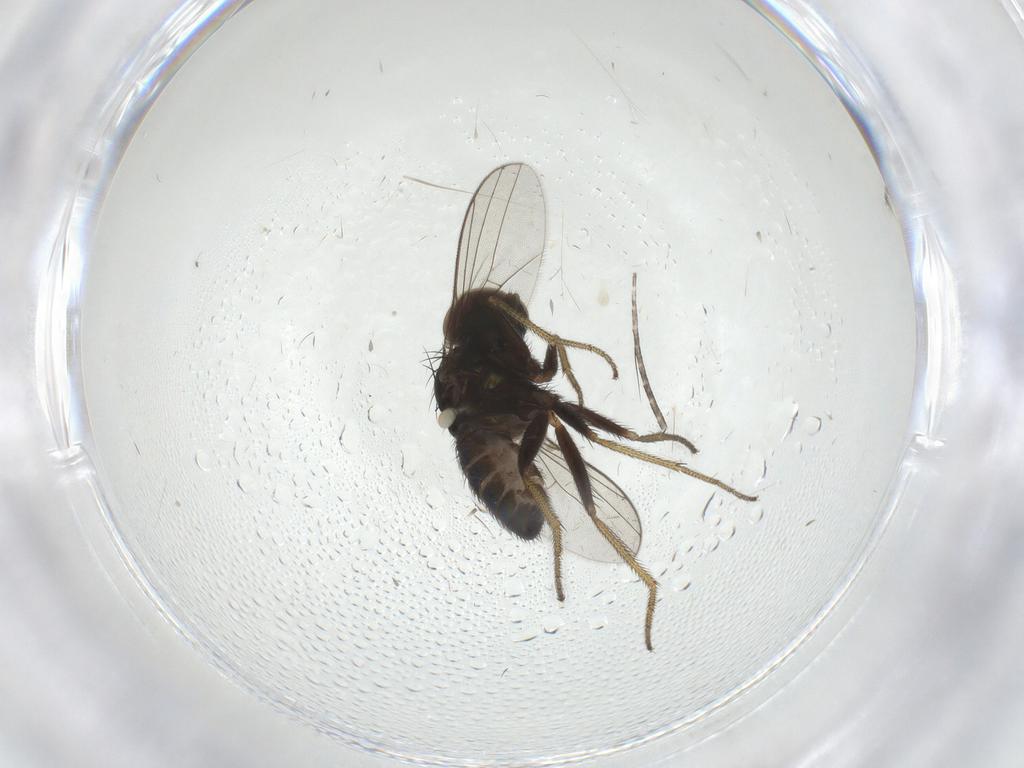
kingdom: Animalia
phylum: Arthropoda
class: Insecta
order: Diptera
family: Dolichopodidae
